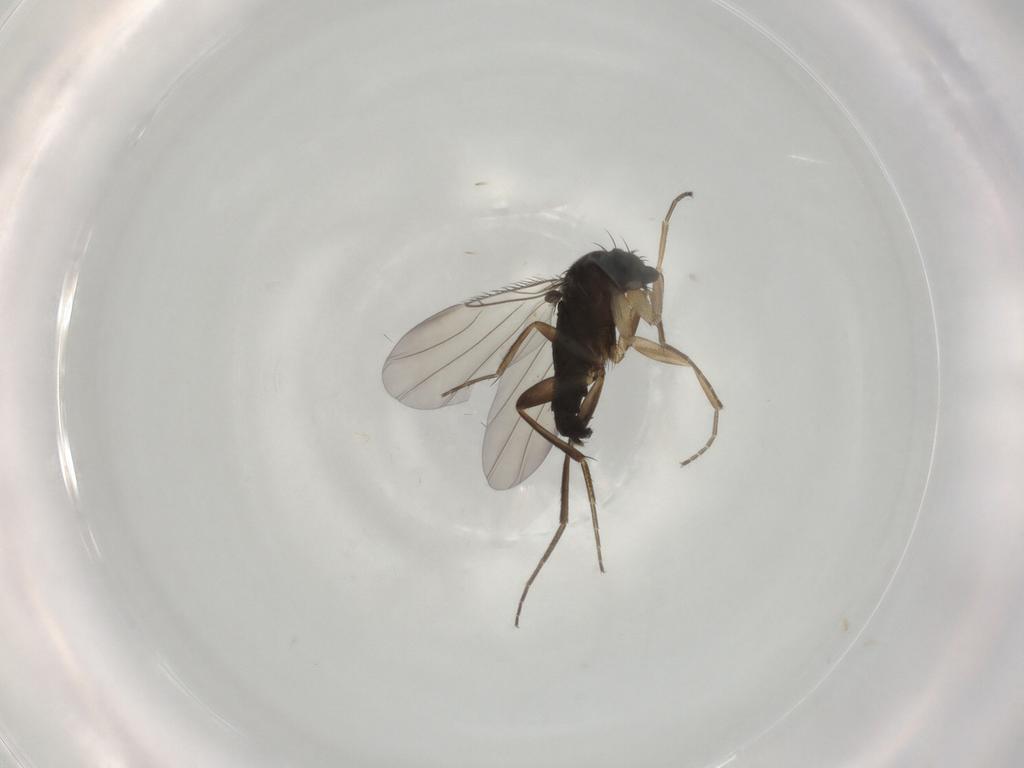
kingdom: Animalia
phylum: Arthropoda
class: Insecta
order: Diptera
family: Phoridae
